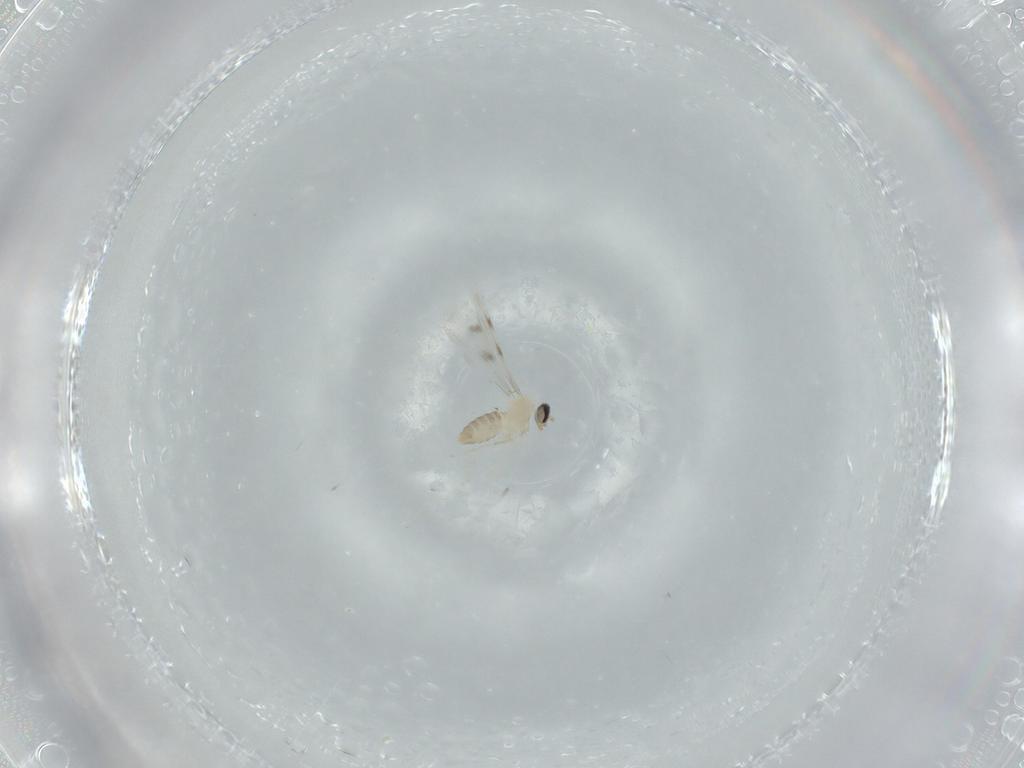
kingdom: Animalia
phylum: Arthropoda
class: Insecta
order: Diptera
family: Cecidomyiidae
